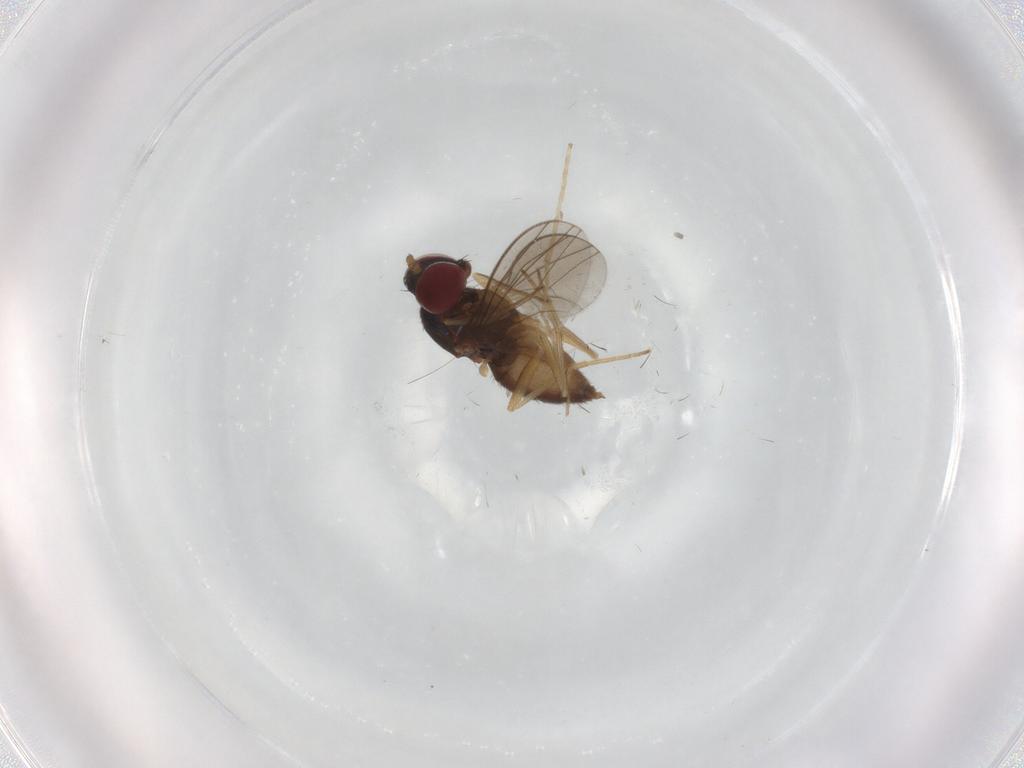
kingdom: Animalia
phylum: Arthropoda
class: Insecta
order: Diptera
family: Dolichopodidae
